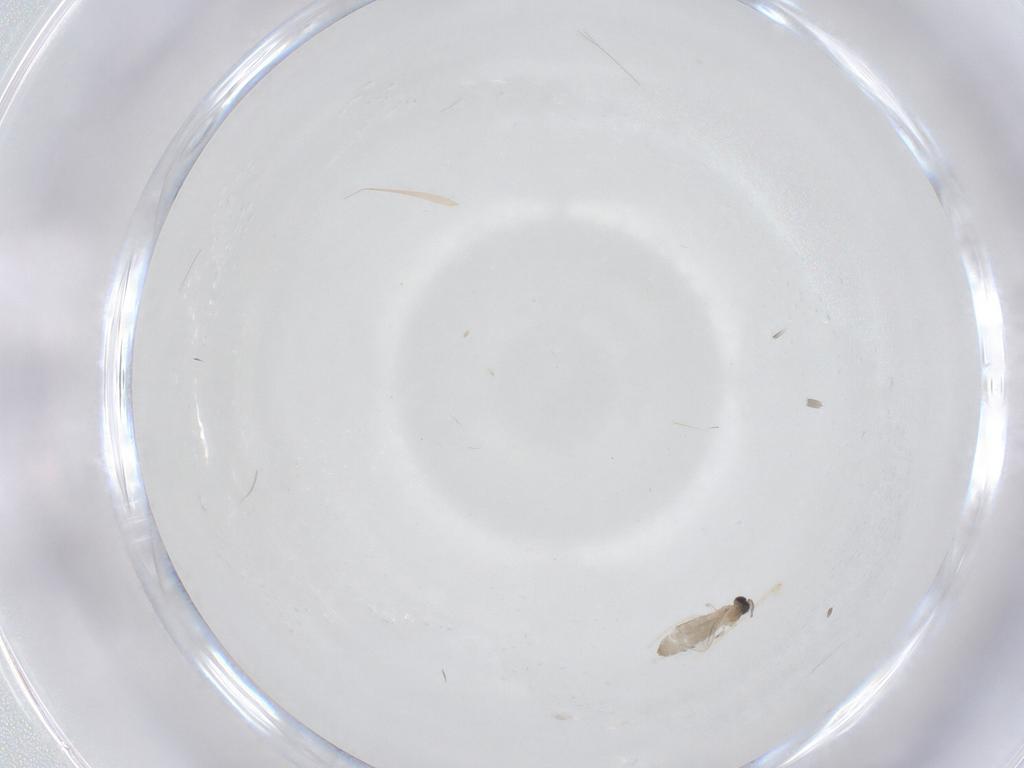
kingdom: Animalia
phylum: Arthropoda
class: Insecta
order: Diptera
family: Cecidomyiidae
